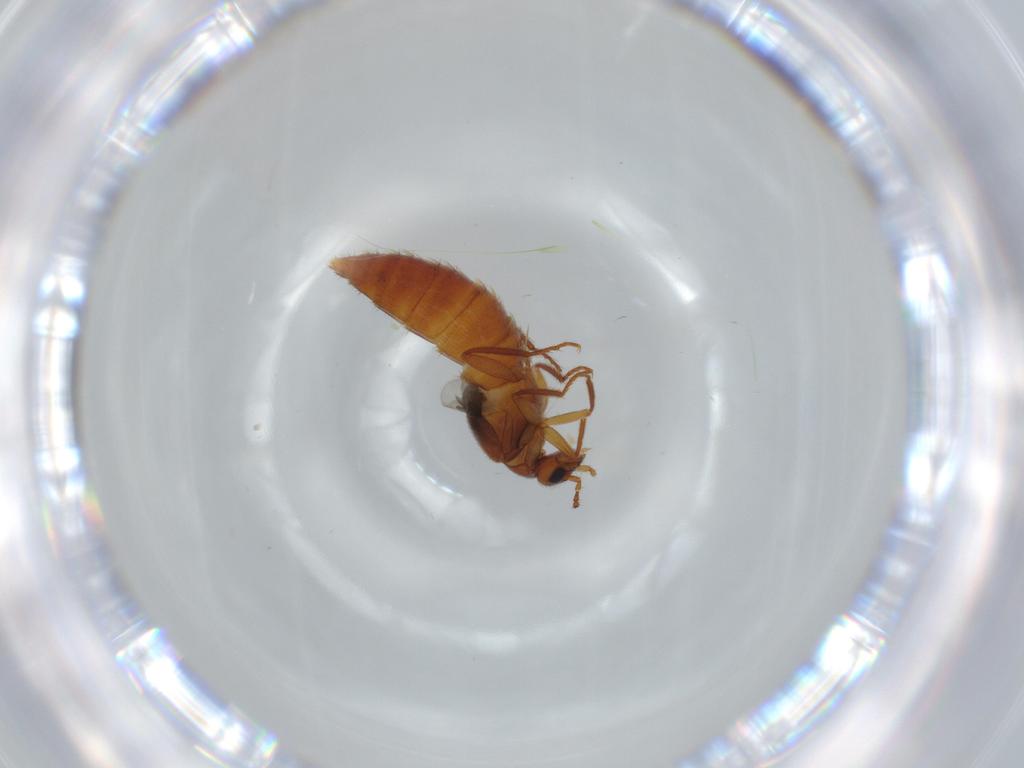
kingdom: Animalia
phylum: Arthropoda
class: Insecta
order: Coleoptera
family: Staphylinidae
